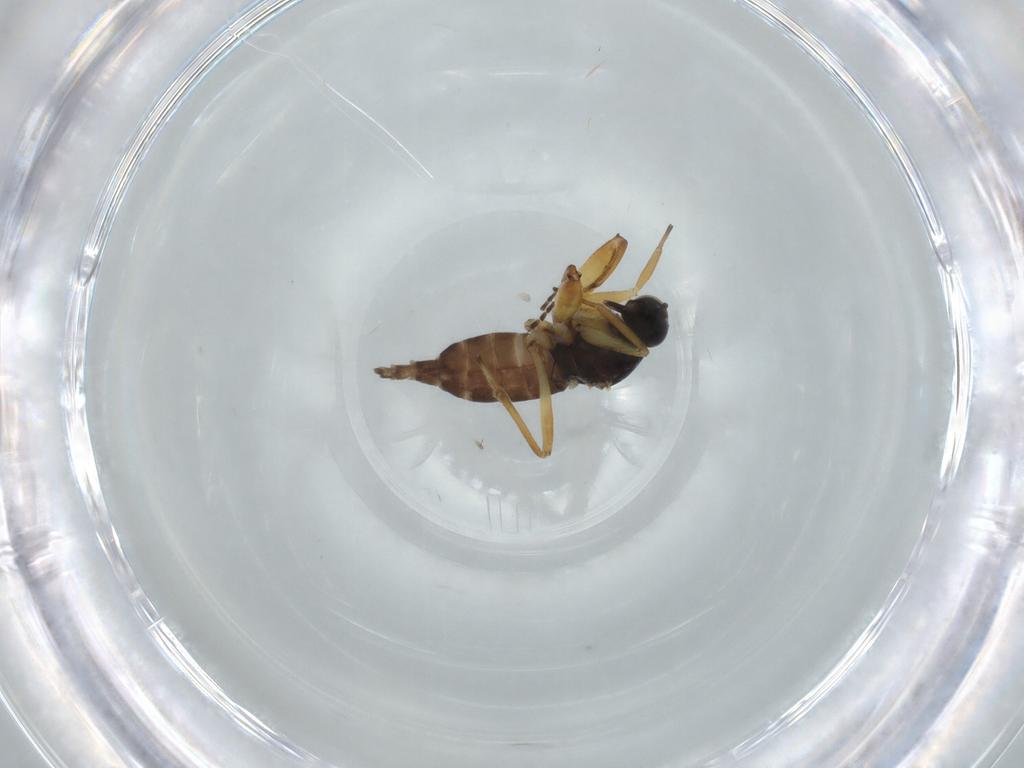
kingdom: Animalia
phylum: Arthropoda
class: Insecta
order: Diptera
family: Hybotidae
